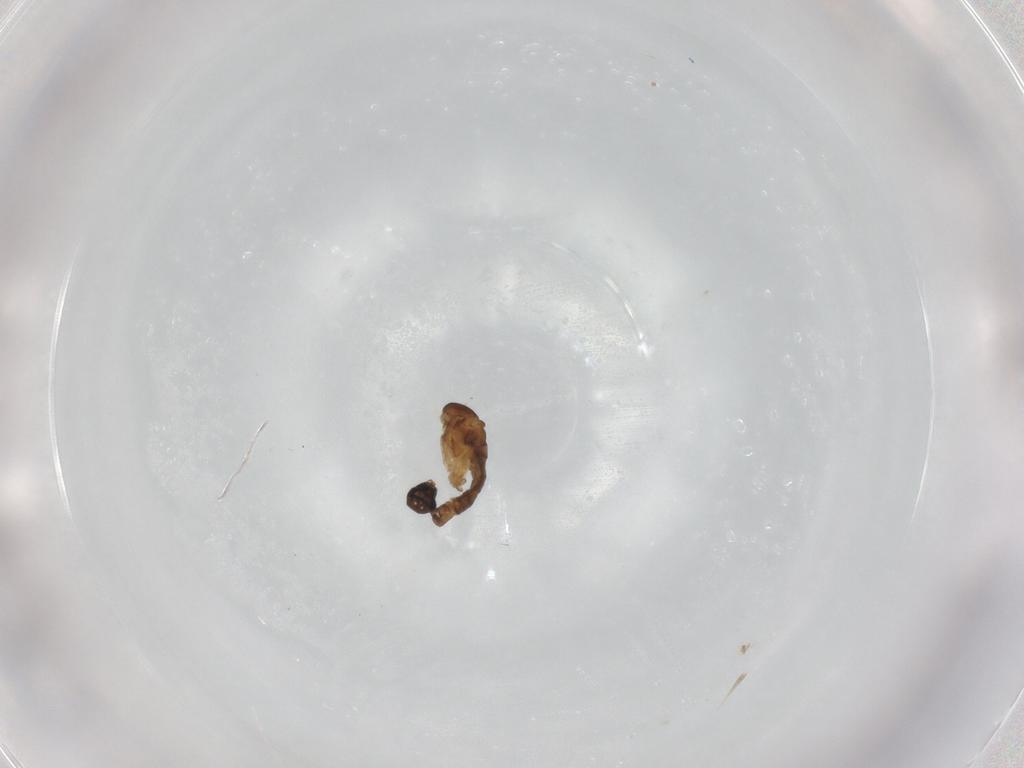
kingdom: Animalia
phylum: Arthropoda
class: Insecta
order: Diptera
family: Sciaridae
